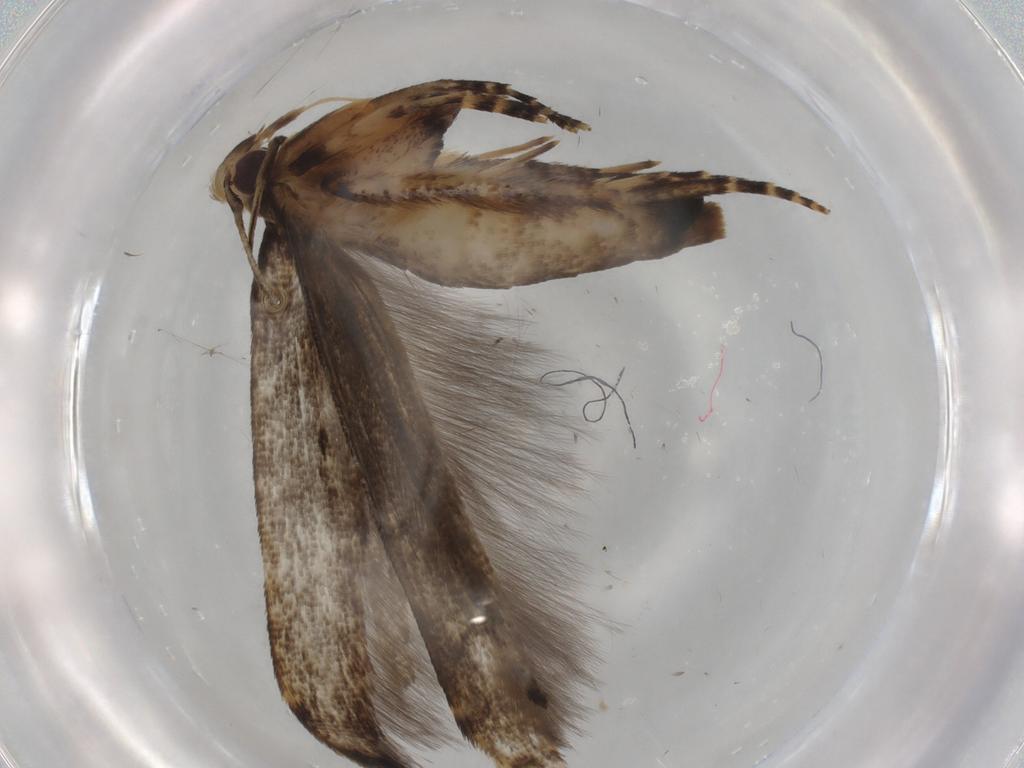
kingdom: Animalia
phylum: Arthropoda
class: Insecta
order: Lepidoptera
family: Cosmopterigidae
